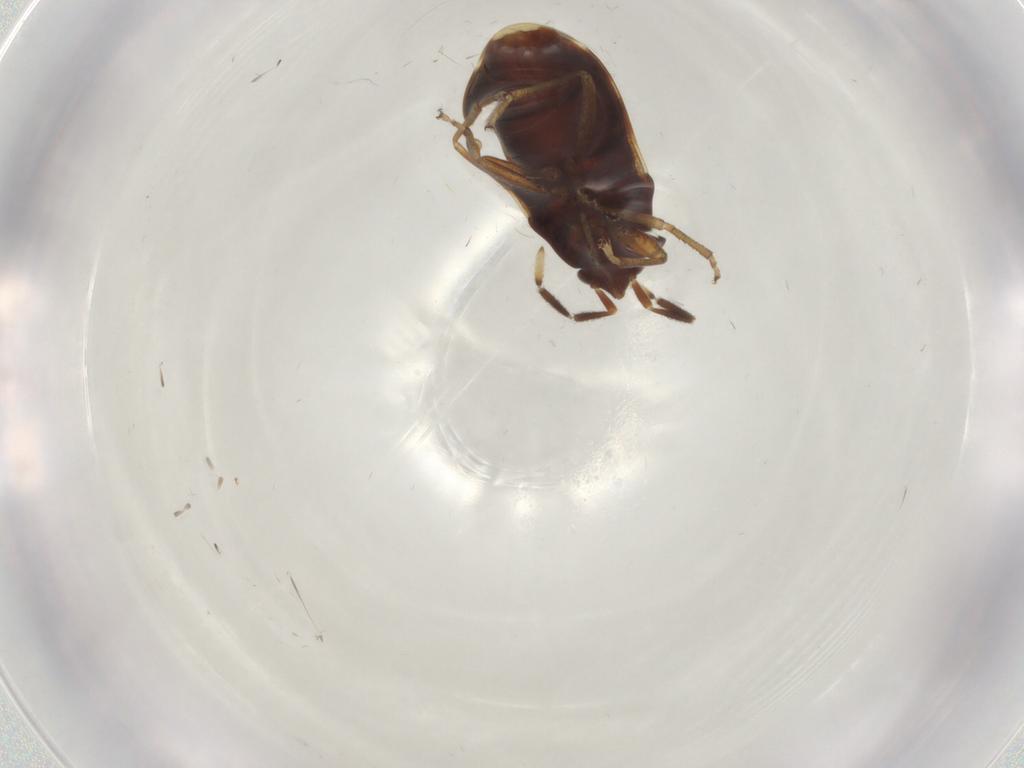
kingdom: Animalia
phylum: Arthropoda
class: Insecta
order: Hemiptera
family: Rhyparochromidae
